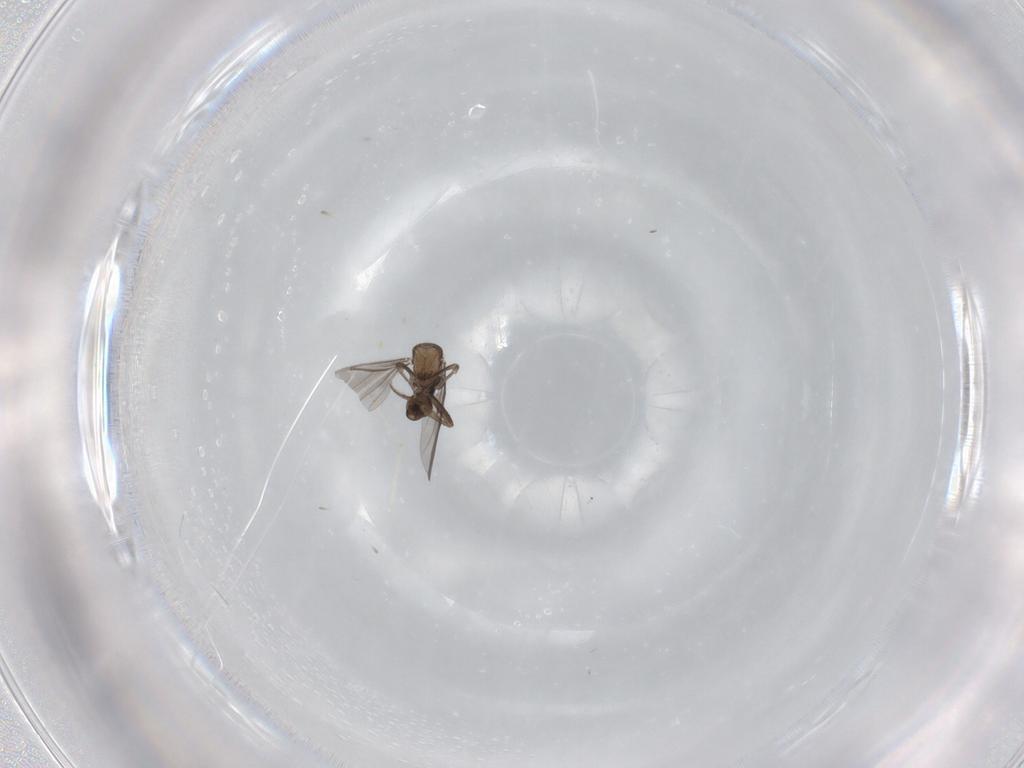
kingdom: Animalia
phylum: Arthropoda
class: Insecta
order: Diptera
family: Cecidomyiidae
